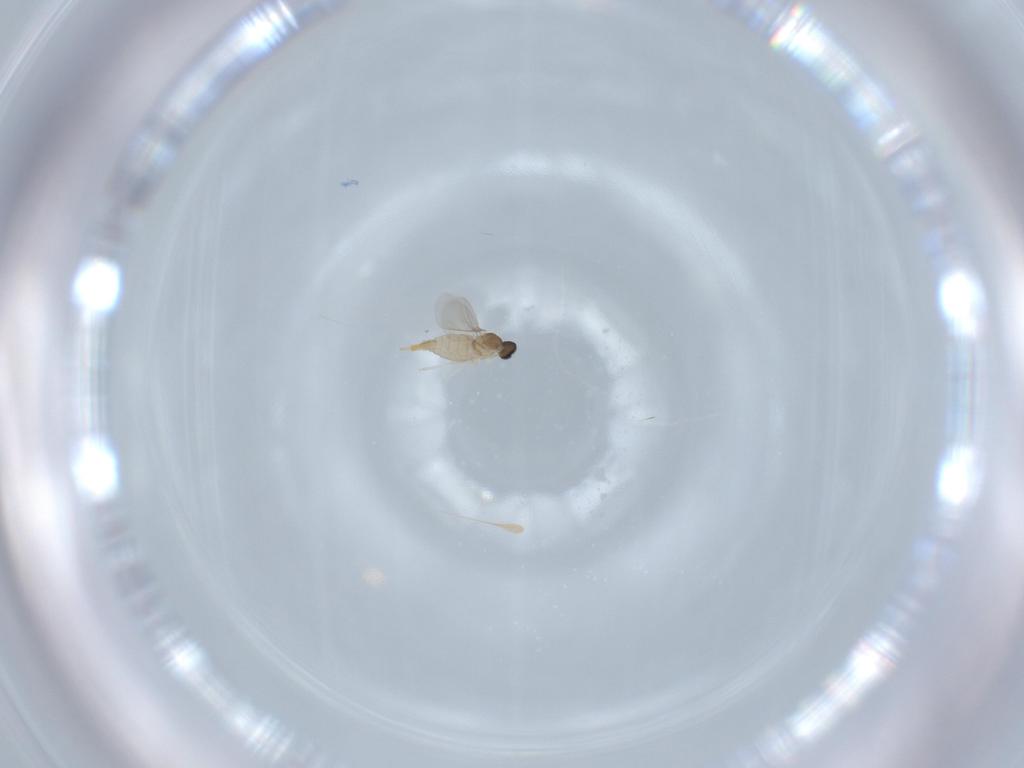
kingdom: Animalia
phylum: Arthropoda
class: Insecta
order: Diptera
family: Cecidomyiidae
